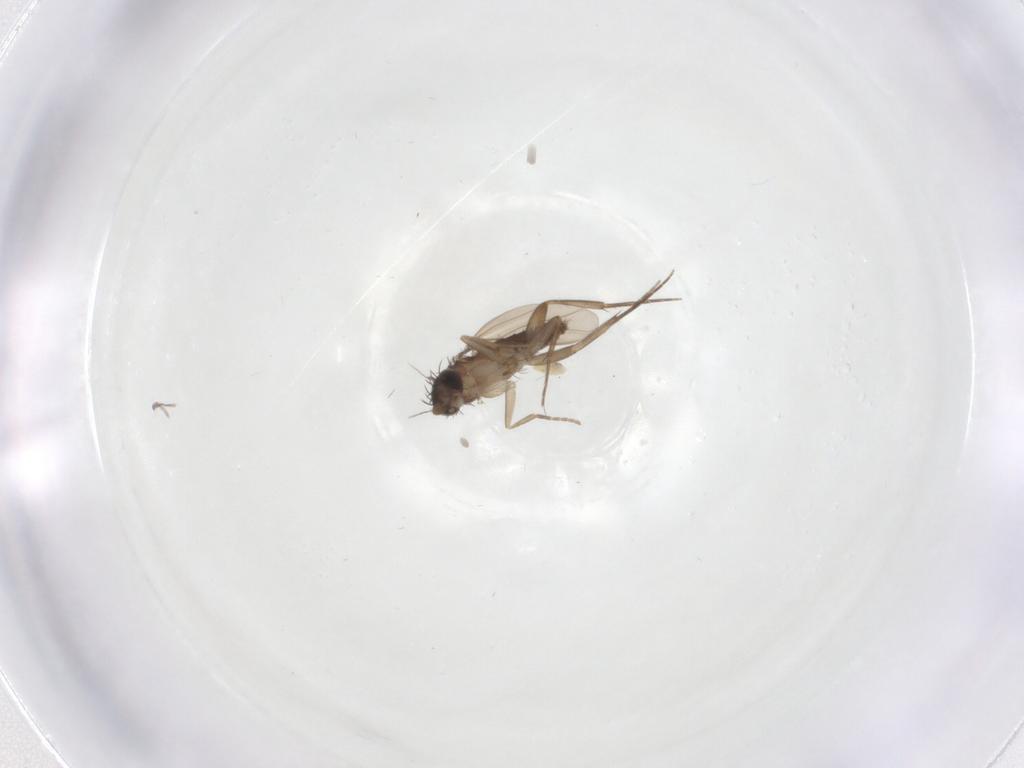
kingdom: Animalia
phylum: Arthropoda
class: Insecta
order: Diptera
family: Phoridae
